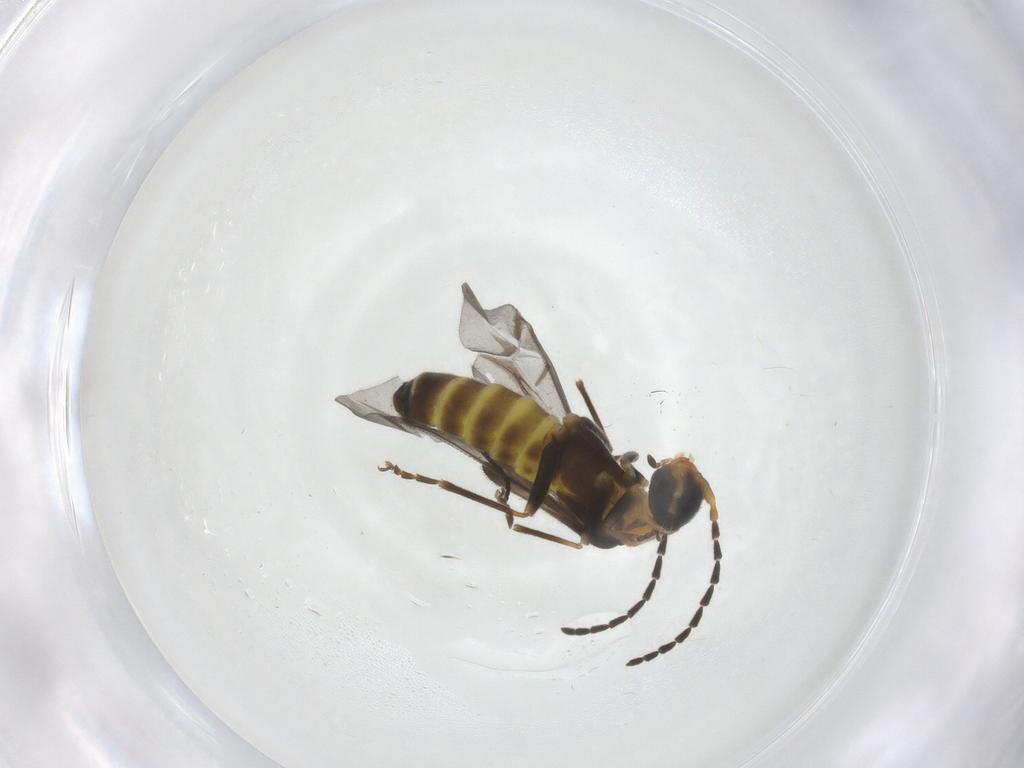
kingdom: Animalia
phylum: Arthropoda
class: Insecta
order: Coleoptera
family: Cantharidae
